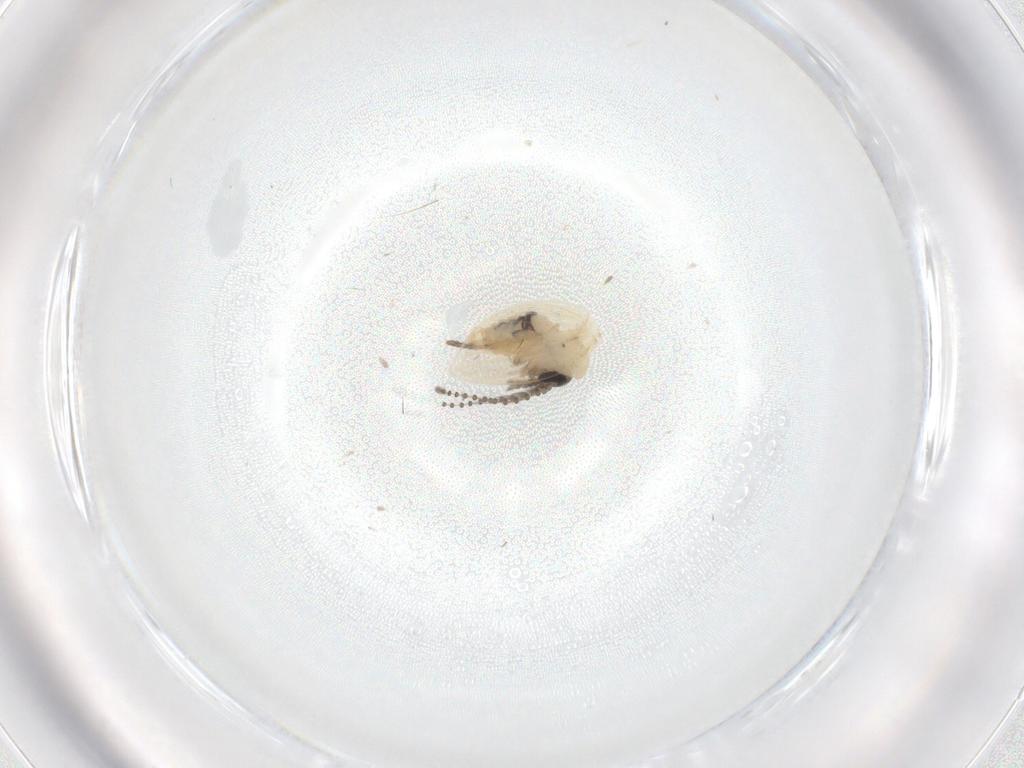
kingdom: Animalia
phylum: Arthropoda
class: Insecta
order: Diptera
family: Psychodidae
